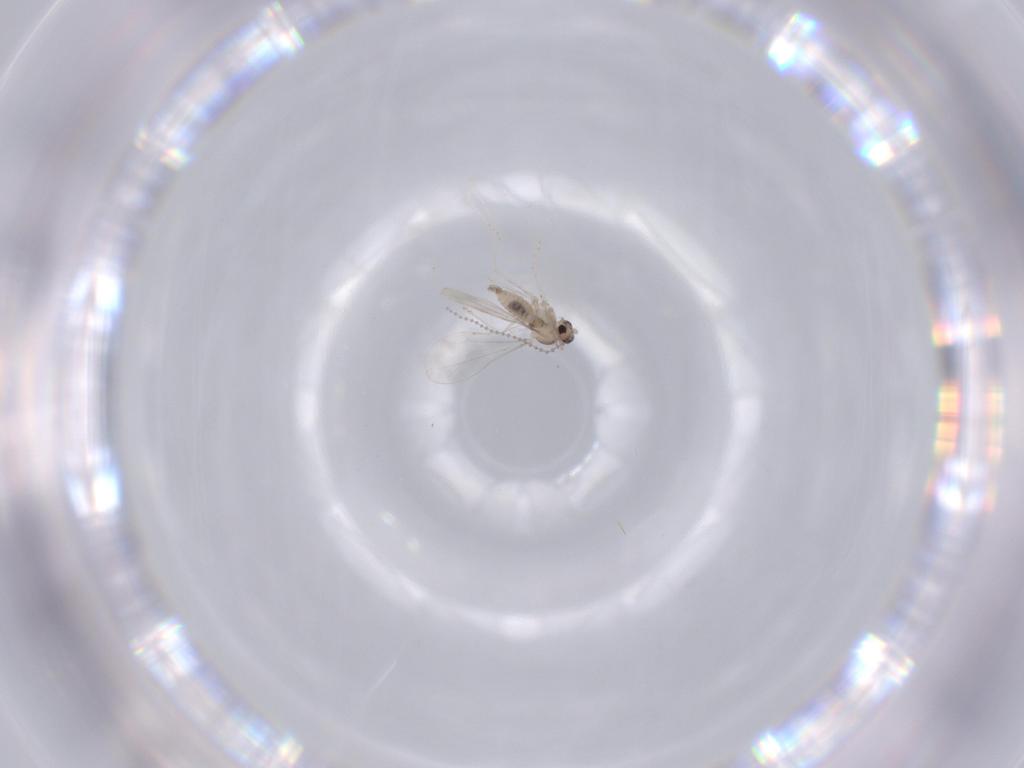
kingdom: Animalia
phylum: Arthropoda
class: Insecta
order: Diptera
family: Cecidomyiidae
